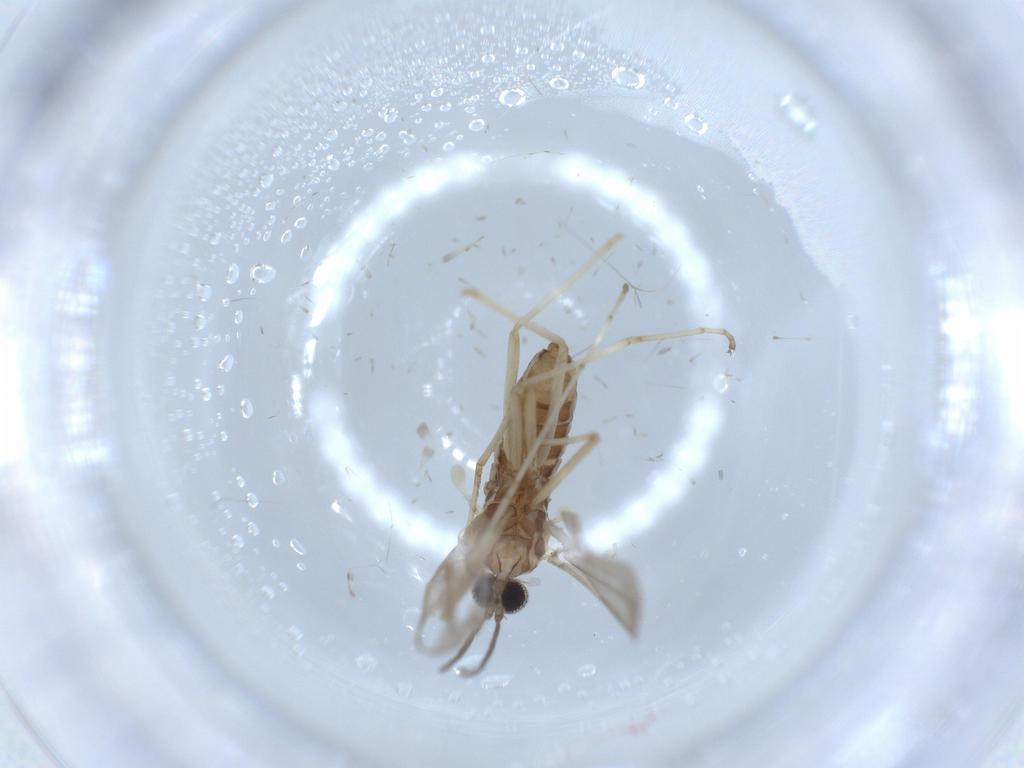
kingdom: Animalia
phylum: Arthropoda
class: Insecta
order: Diptera
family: Cecidomyiidae
